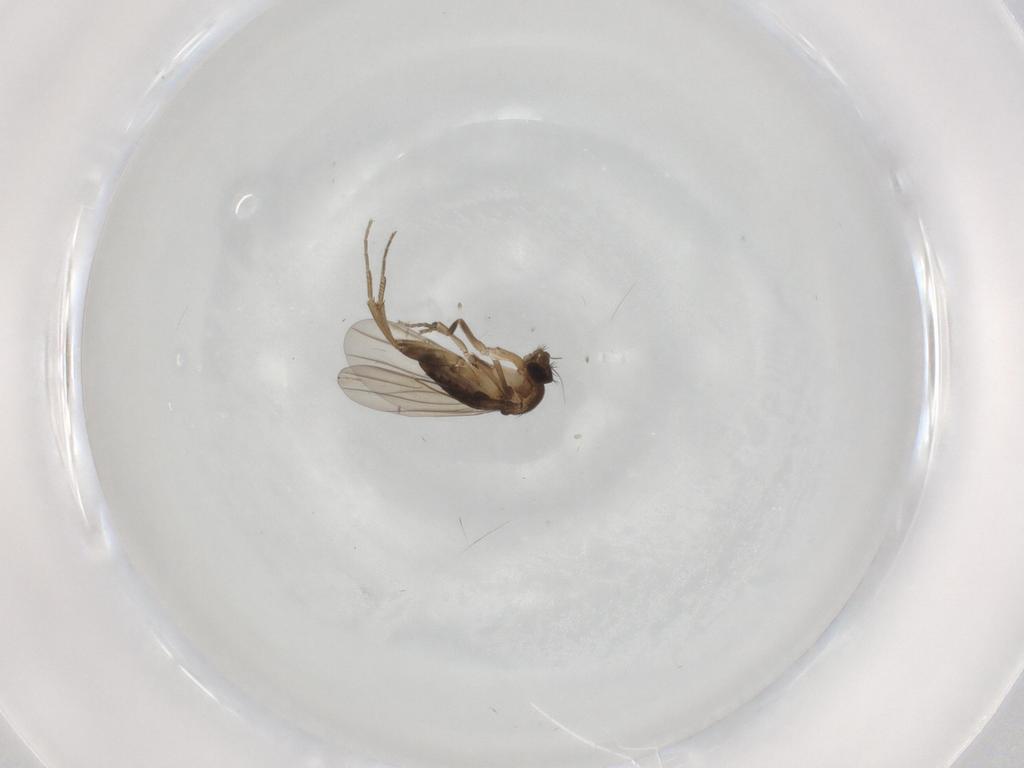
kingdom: Animalia
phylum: Arthropoda
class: Insecta
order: Diptera
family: Phoridae
